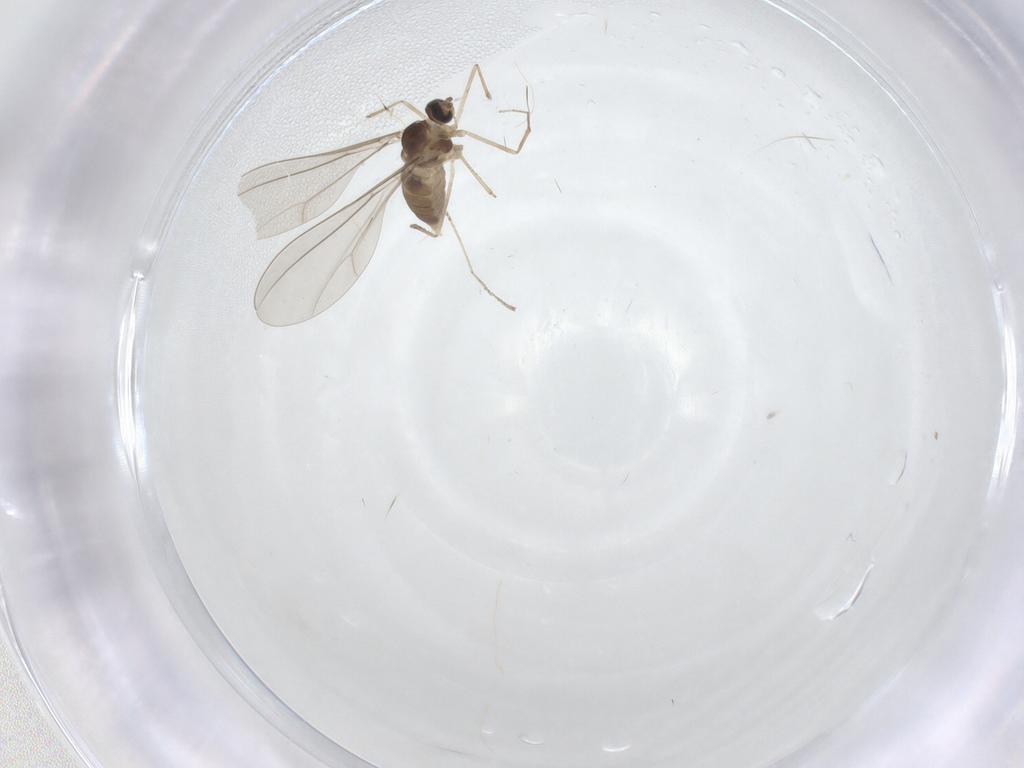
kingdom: Animalia
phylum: Arthropoda
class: Insecta
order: Diptera
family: Cecidomyiidae
